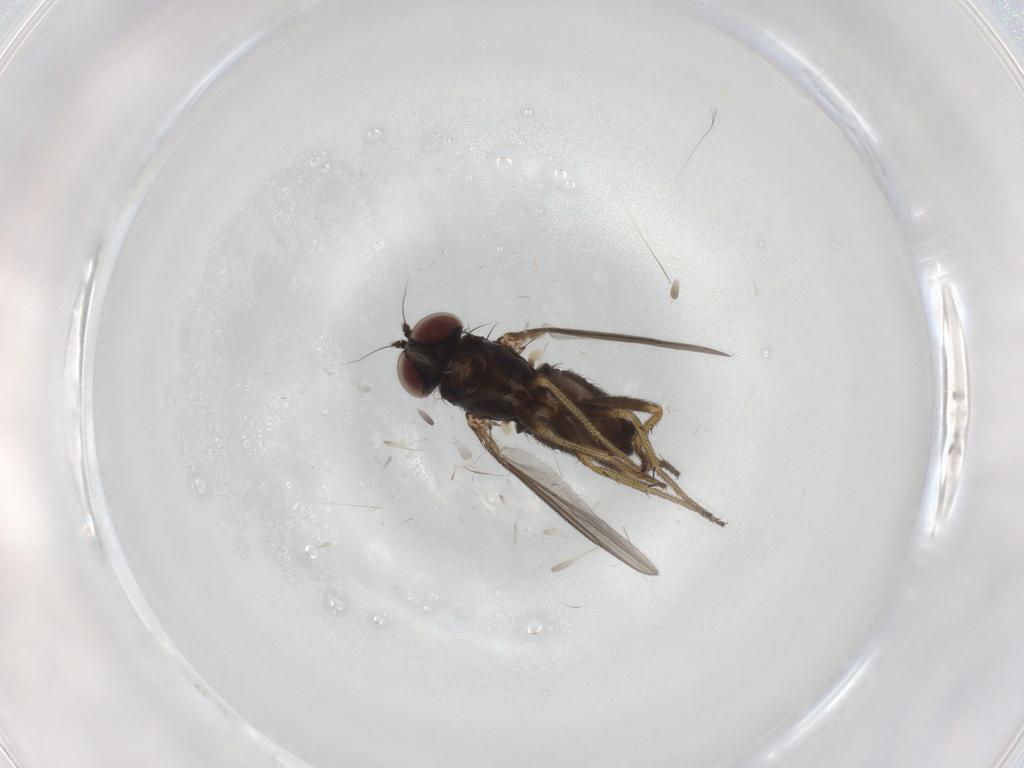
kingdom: Animalia
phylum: Arthropoda
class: Insecta
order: Diptera
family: Dolichopodidae
